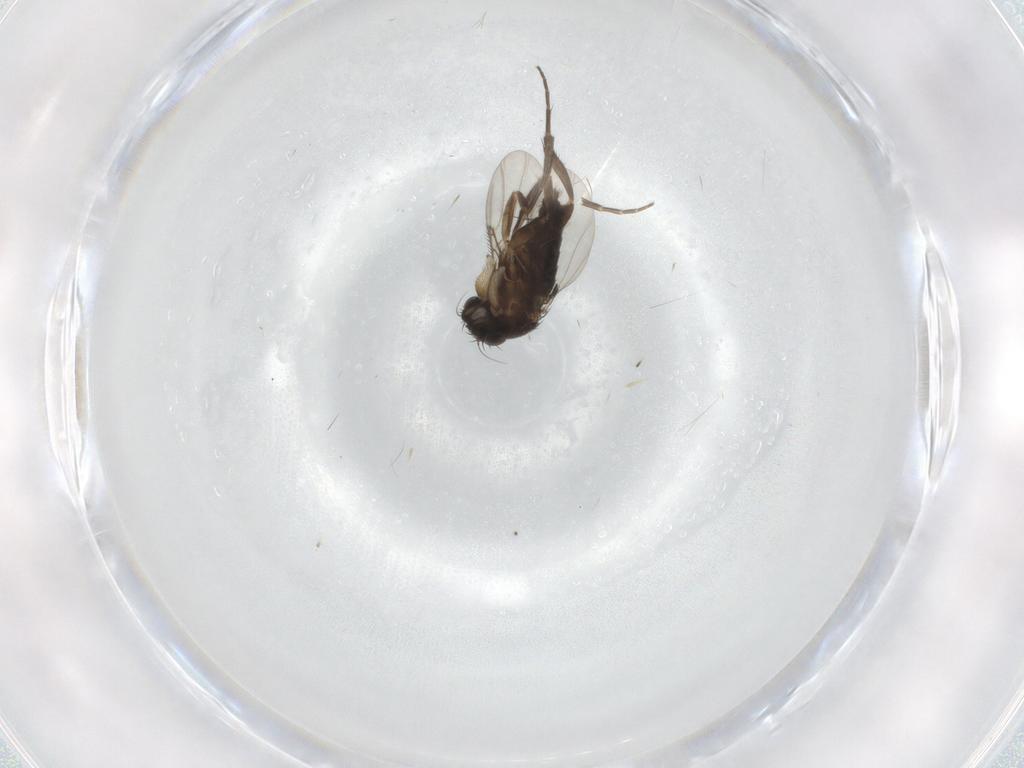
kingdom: Animalia
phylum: Arthropoda
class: Insecta
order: Diptera
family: Phoridae
